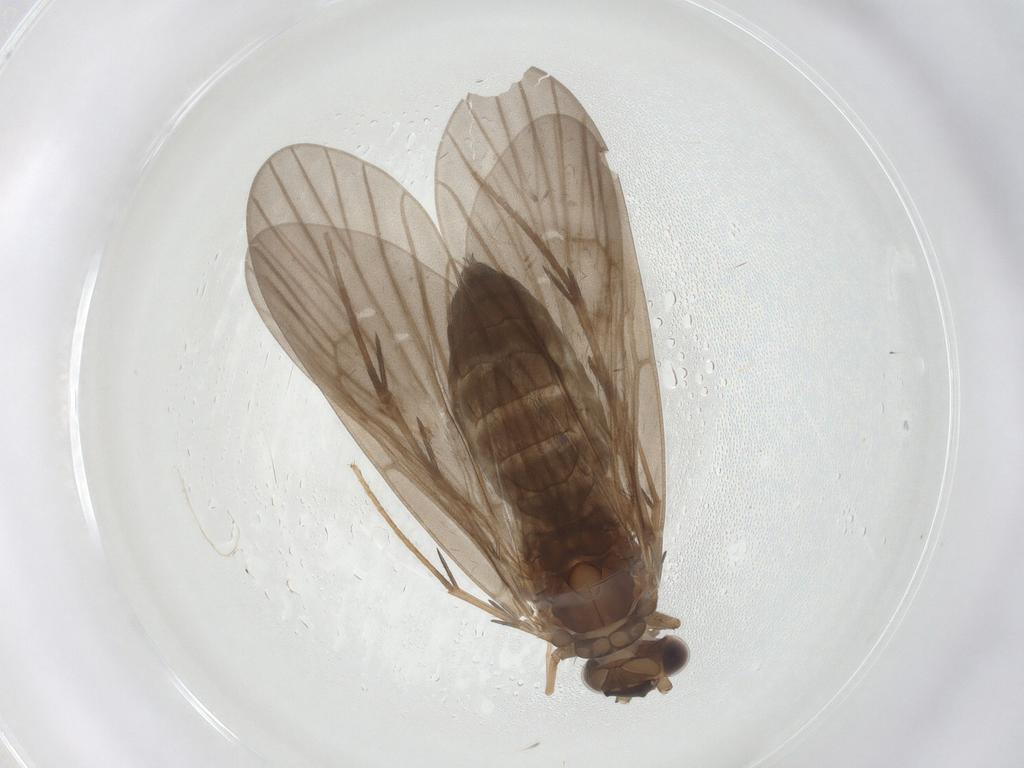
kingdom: Animalia
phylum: Arthropoda
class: Insecta
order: Trichoptera
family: Philopotamidae
